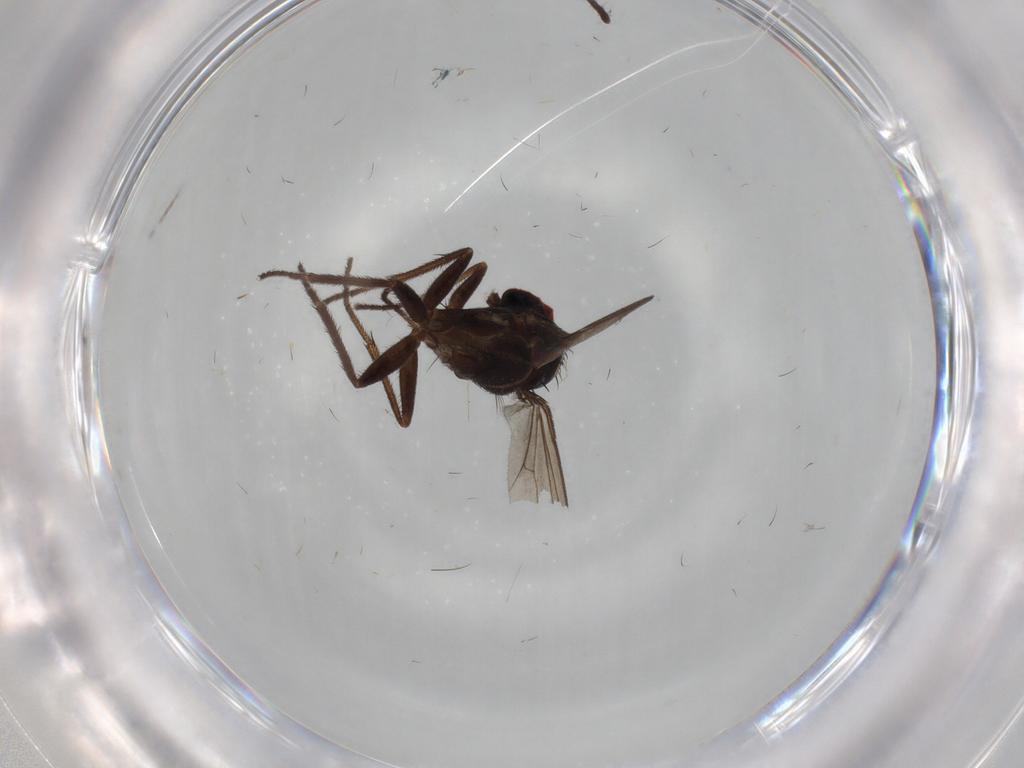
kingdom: Animalia
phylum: Arthropoda
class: Insecta
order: Diptera
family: Dolichopodidae
